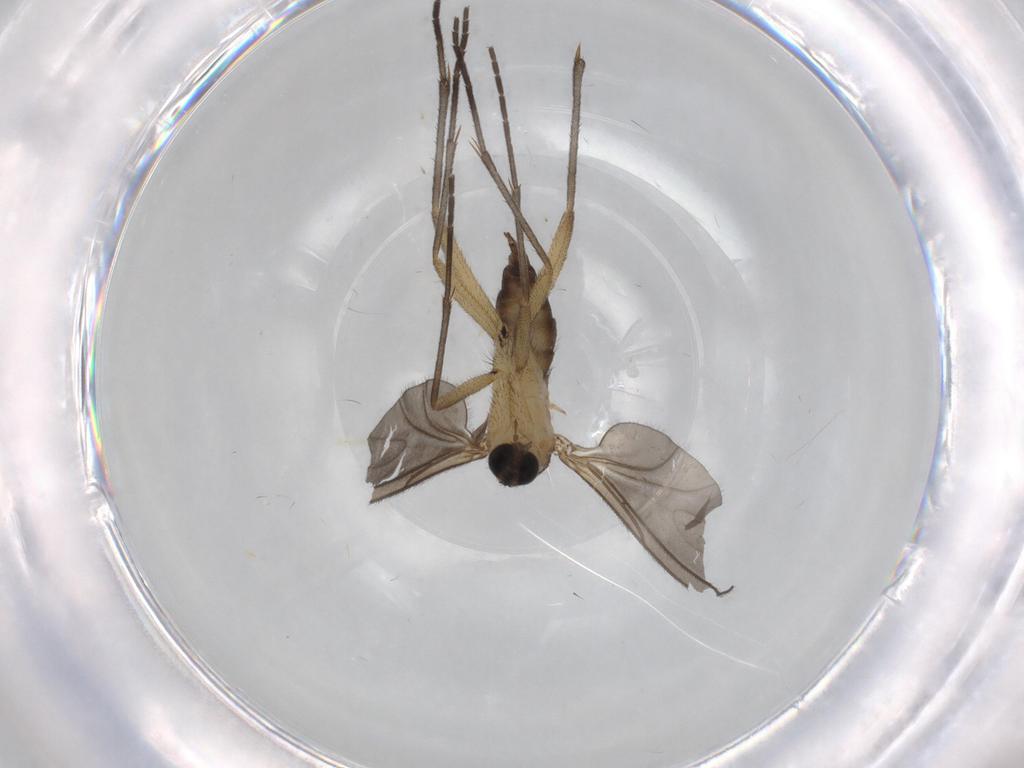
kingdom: Animalia
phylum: Arthropoda
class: Insecta
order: Diptera
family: Sciaridae
